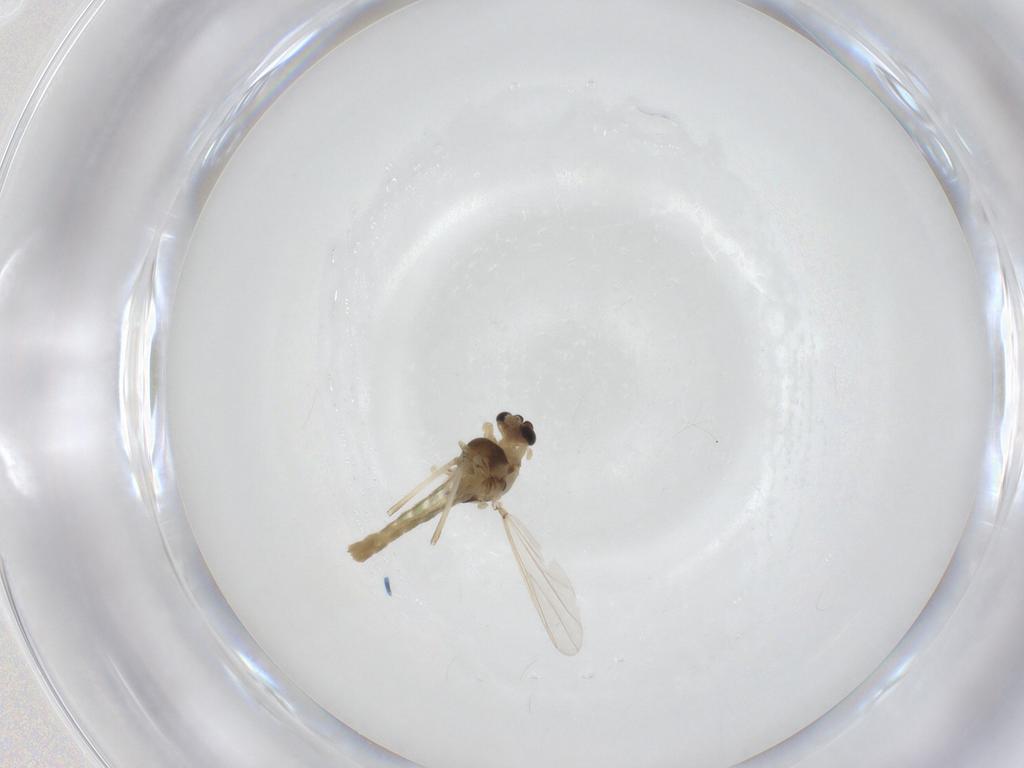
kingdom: Animalia
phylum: Arthropoda
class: Insecta
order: Diptera
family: Chironomidae
